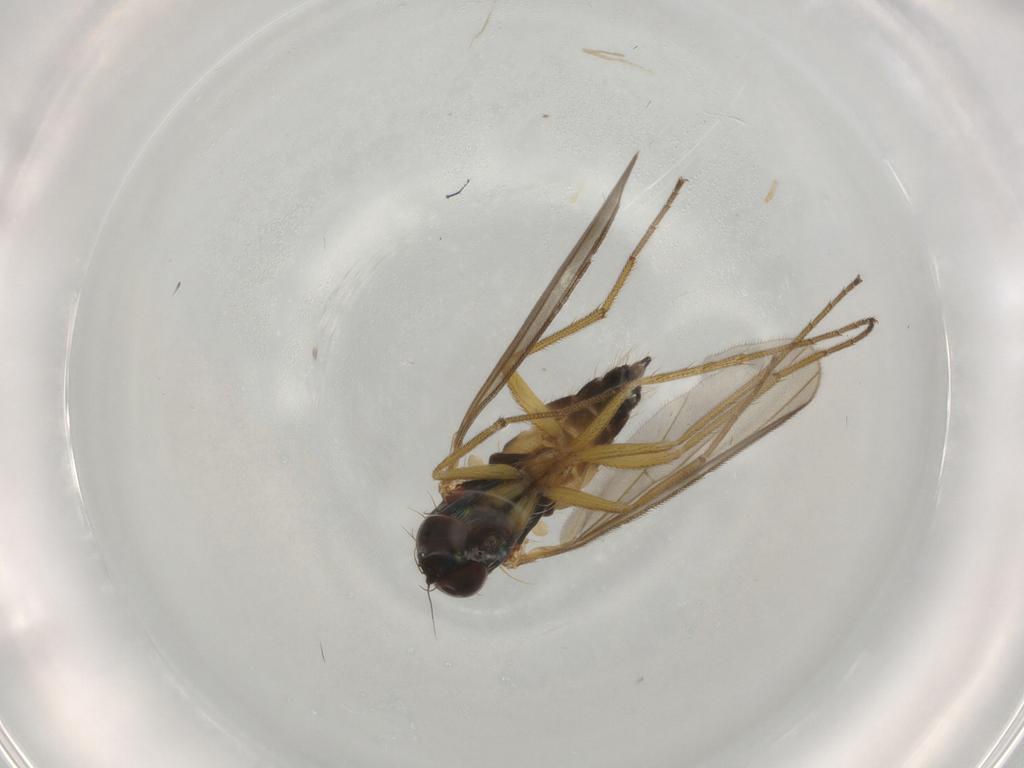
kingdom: Animalia
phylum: Arthropoda
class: Insecta
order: Diptera
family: Dolichopodidae
